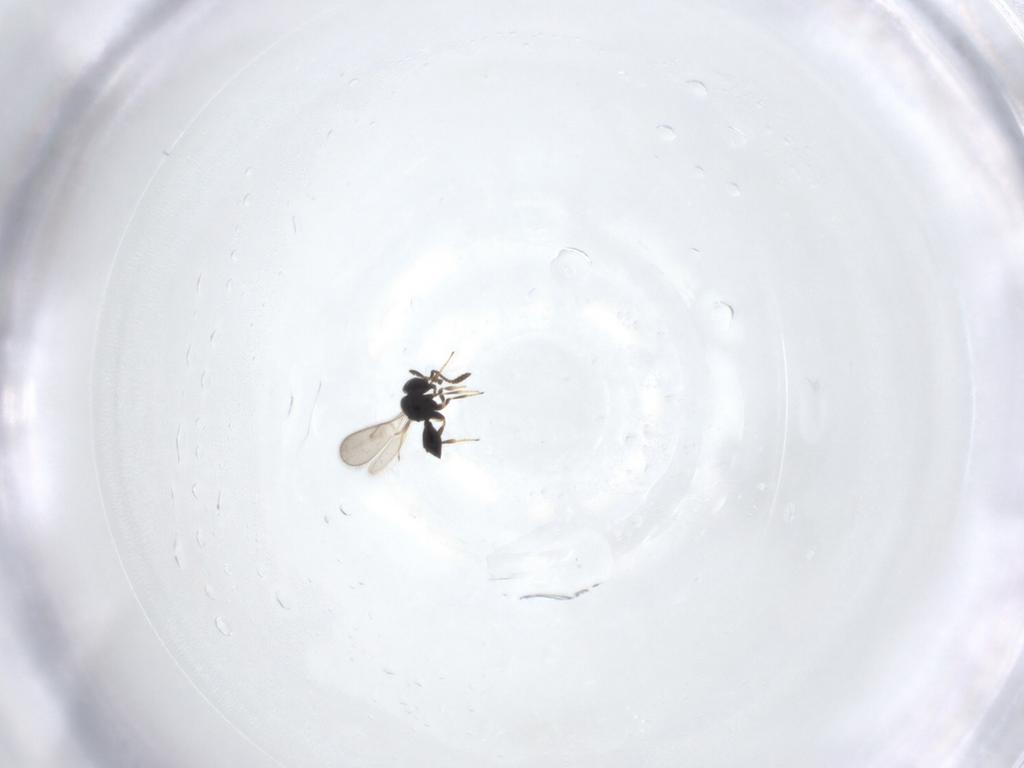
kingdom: Animalia
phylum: Arthropoda
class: Insecta
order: Hymenoptera
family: Scelionidae
